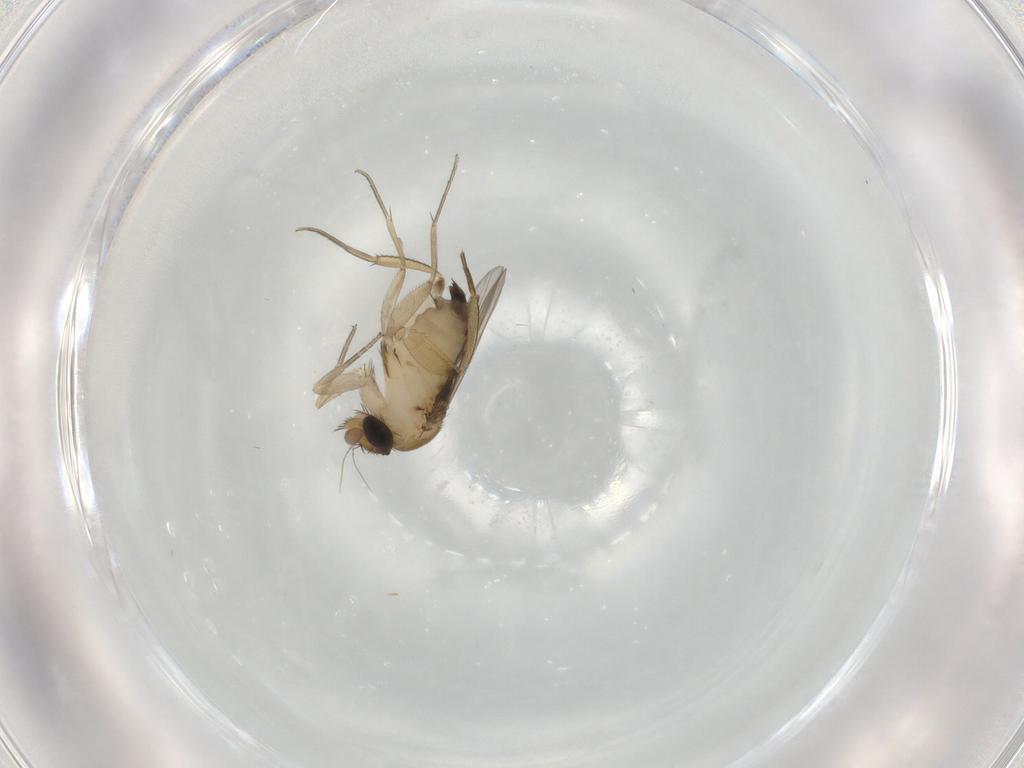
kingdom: Animalia
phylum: Arthropoda
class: Insecta
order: Diptera
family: Phoridae
